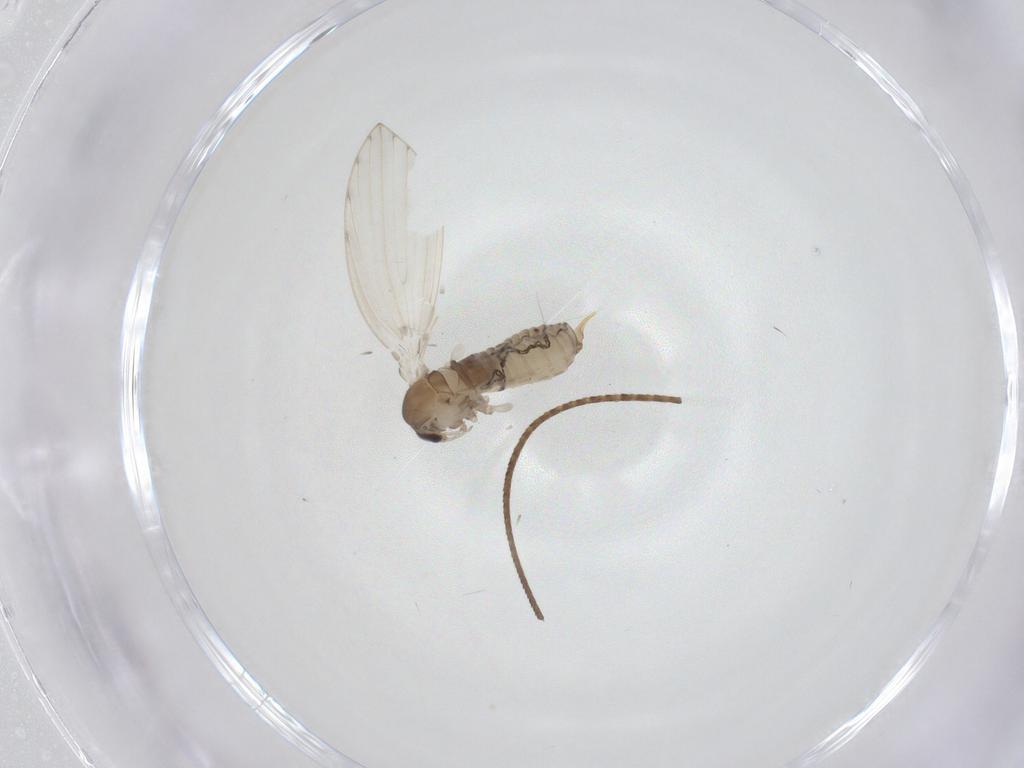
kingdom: Animalia
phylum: Arthropoda
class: Insecta
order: Diptera
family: Psychodidae
